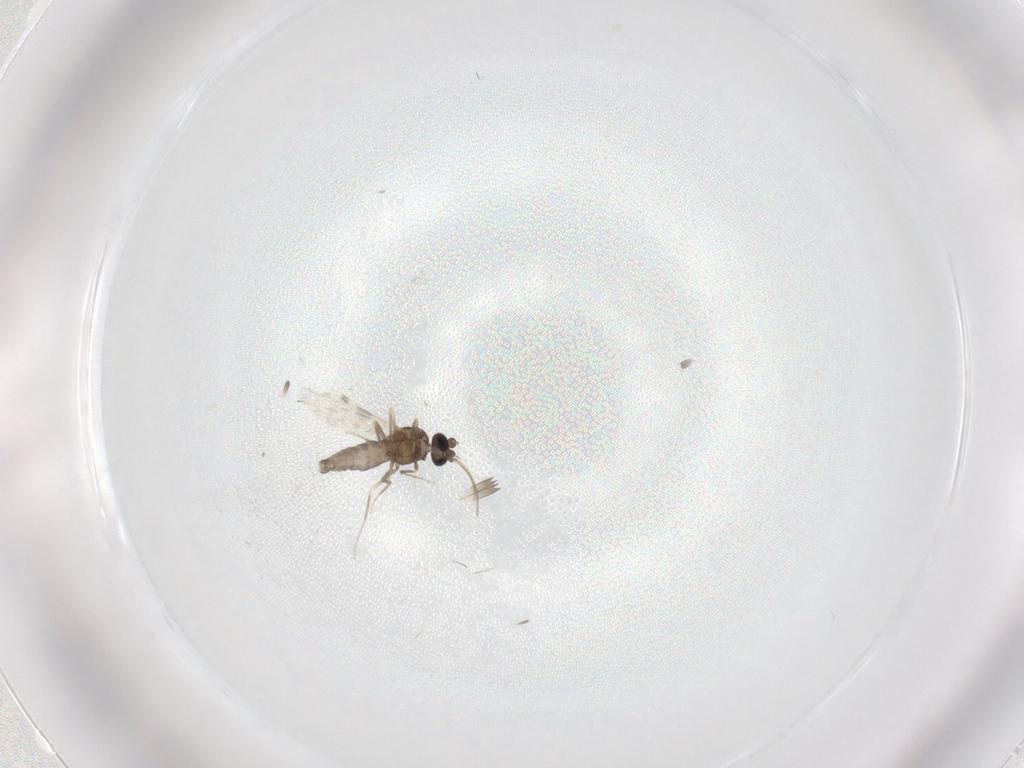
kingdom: Animalia
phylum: Arthropoda
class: Insecta
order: Diptera
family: Ceratopogonidae
